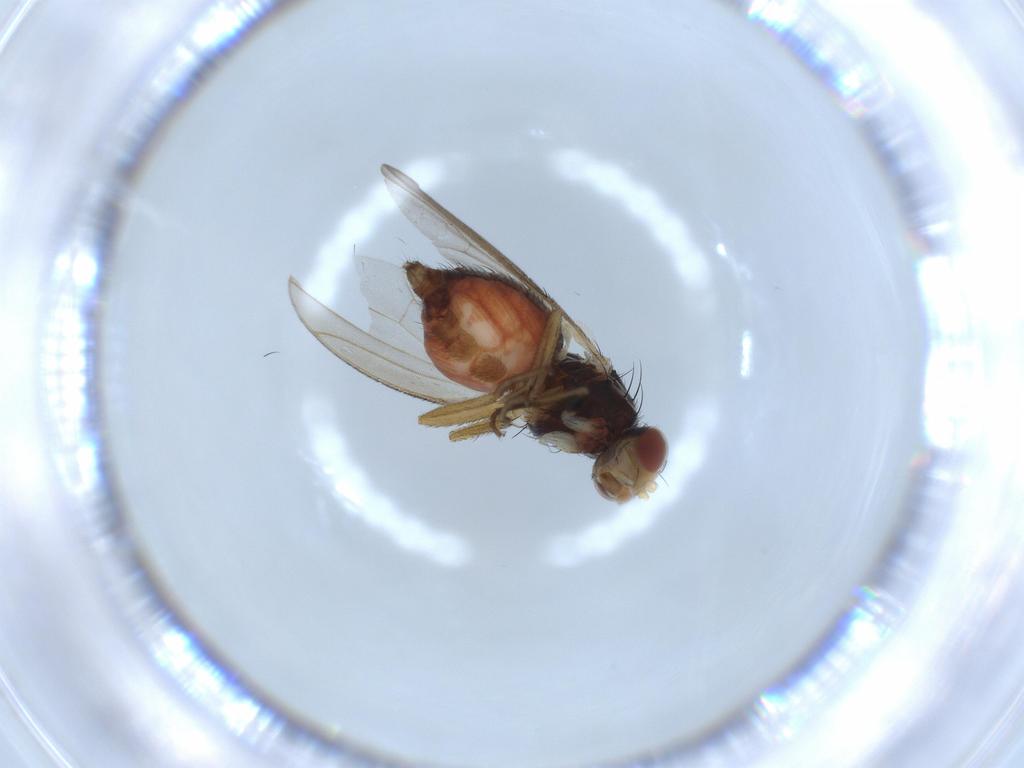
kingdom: Animalia
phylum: Arthropoda
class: Insecta
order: Diptera
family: Heleomyzidae
